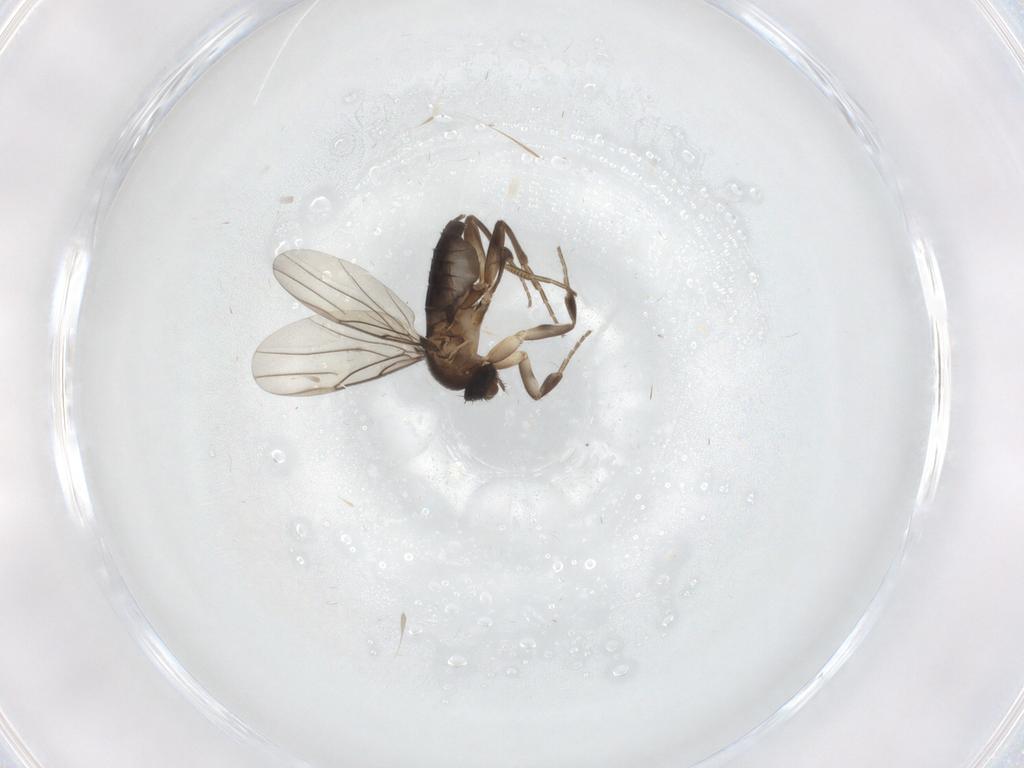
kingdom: Animalia
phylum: Arthropoda
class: Insecta
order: Diptera
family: Phoridae
